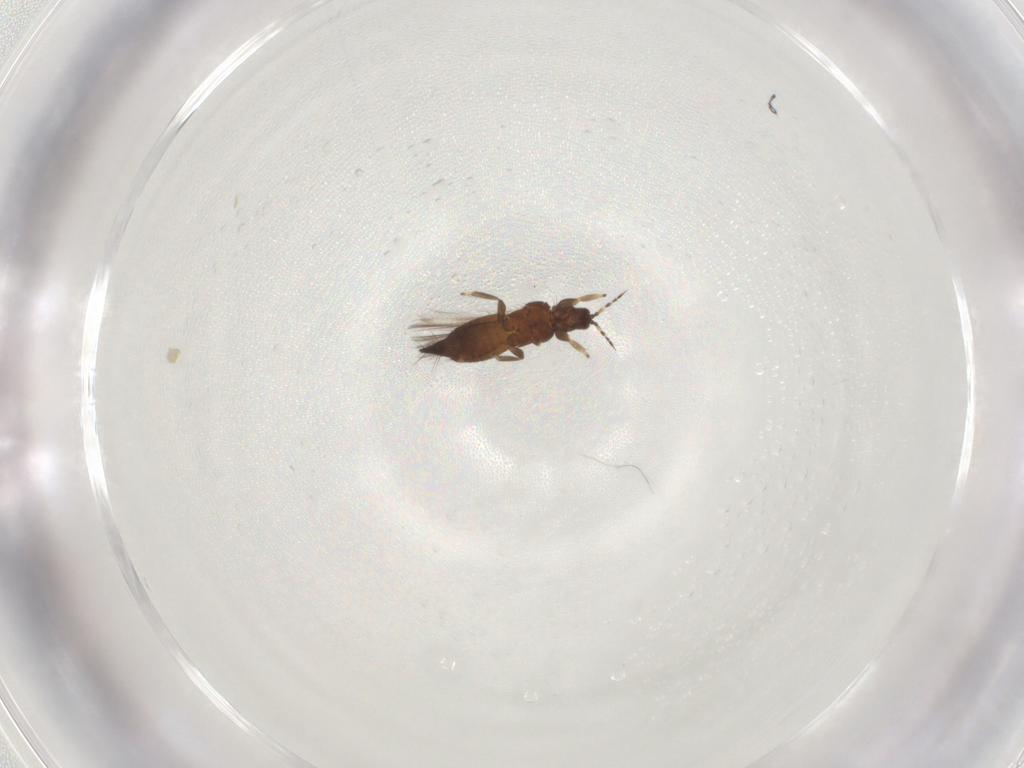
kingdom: Animalia
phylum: Arthropoda
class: Insecta
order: Thysanoptera
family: Thripidae
